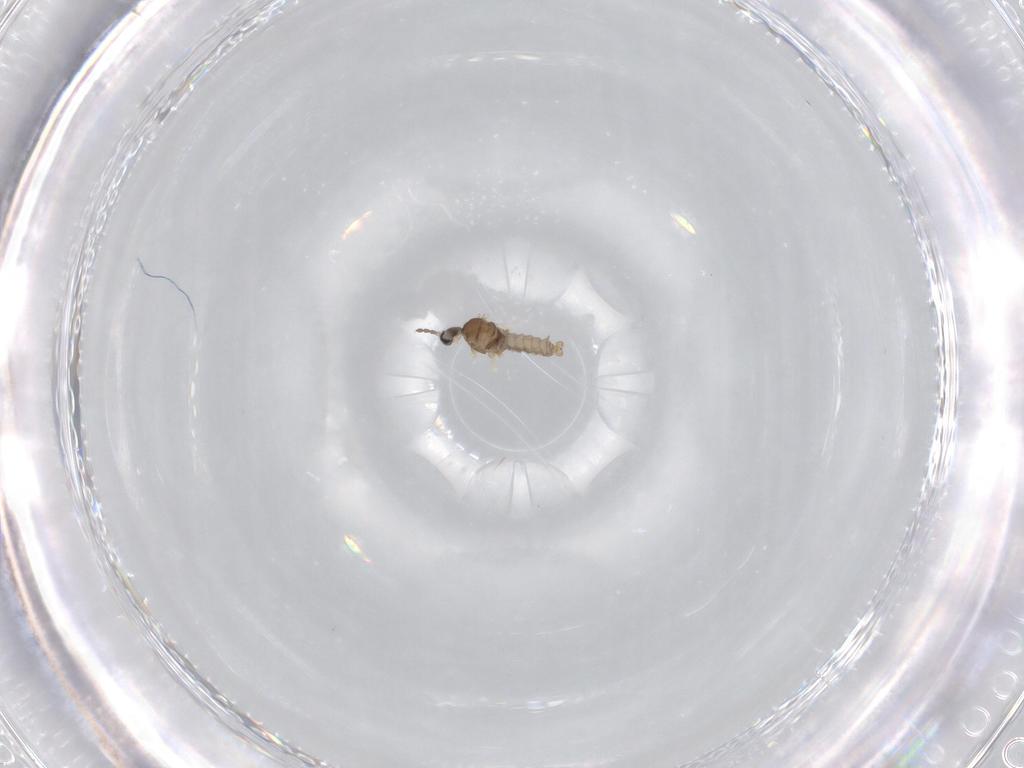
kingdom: Animalia
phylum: Arthropoda
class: Insecta
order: Diptera
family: Ceratopogonidae
